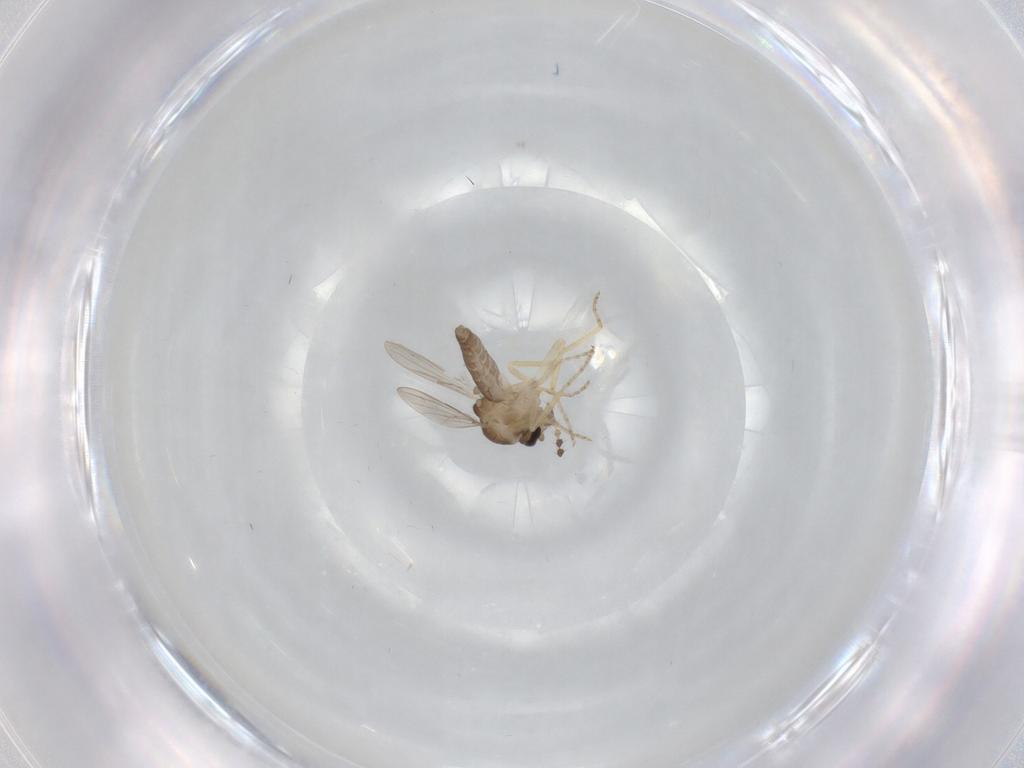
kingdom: Animalia
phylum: Arthropoda
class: Insecta
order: Diptera
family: Ceratopogonidae
